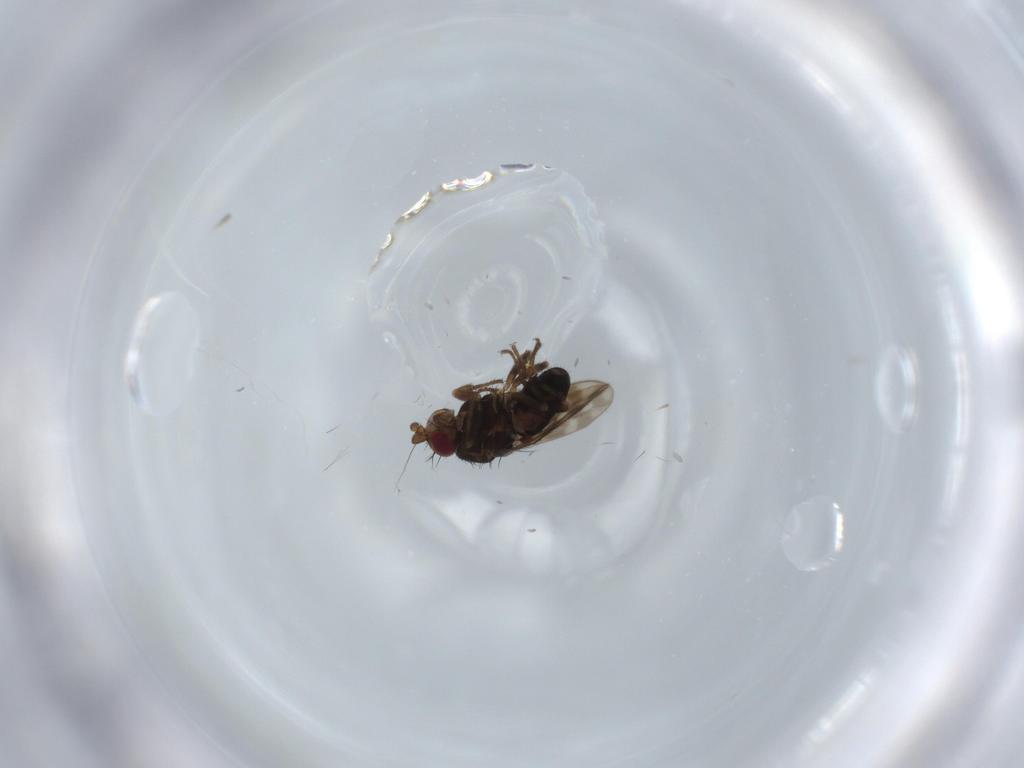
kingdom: Animalia
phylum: Arthropoda
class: Insecta
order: Diptera
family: Sphaeroceridae
